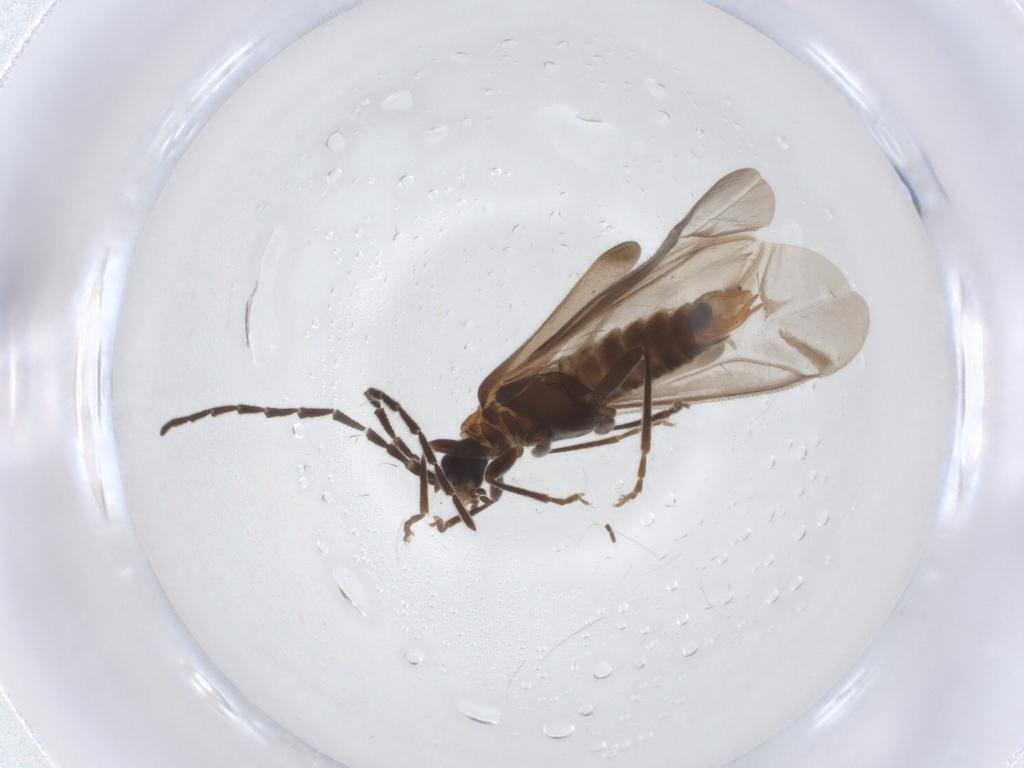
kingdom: Animalia
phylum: Arthropoda
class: Insecta
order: Coleoptera
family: Cantharidae
